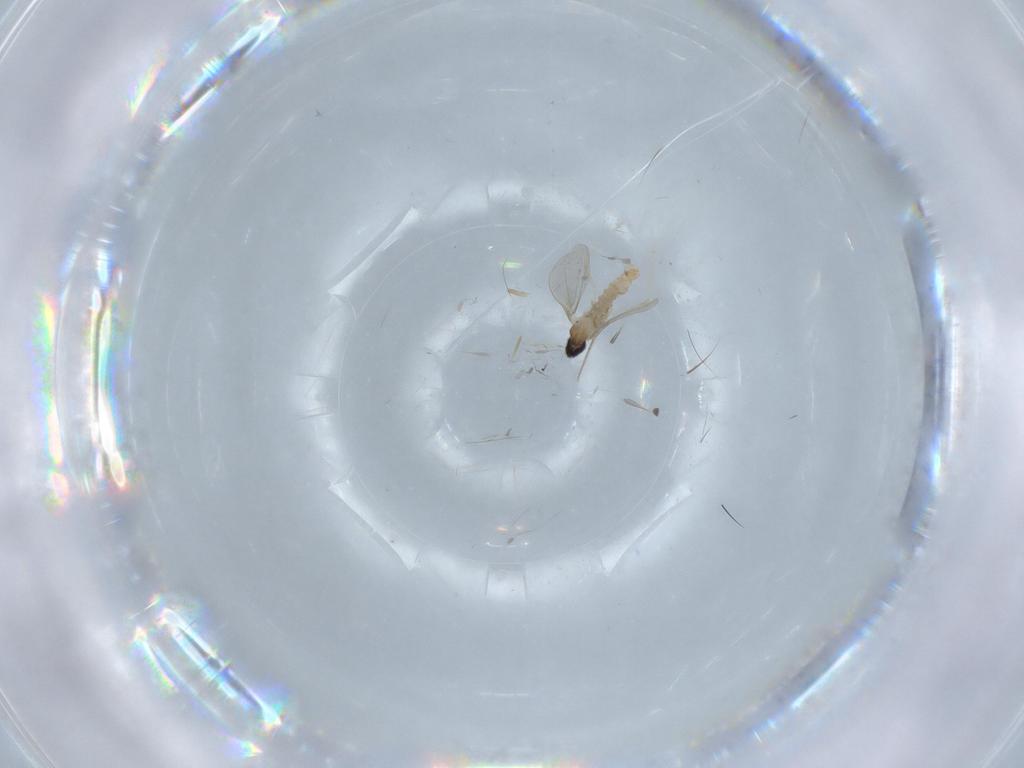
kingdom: Animalia
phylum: Arthropoda
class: Insecta
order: Diptera
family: Cecidomyiidae
